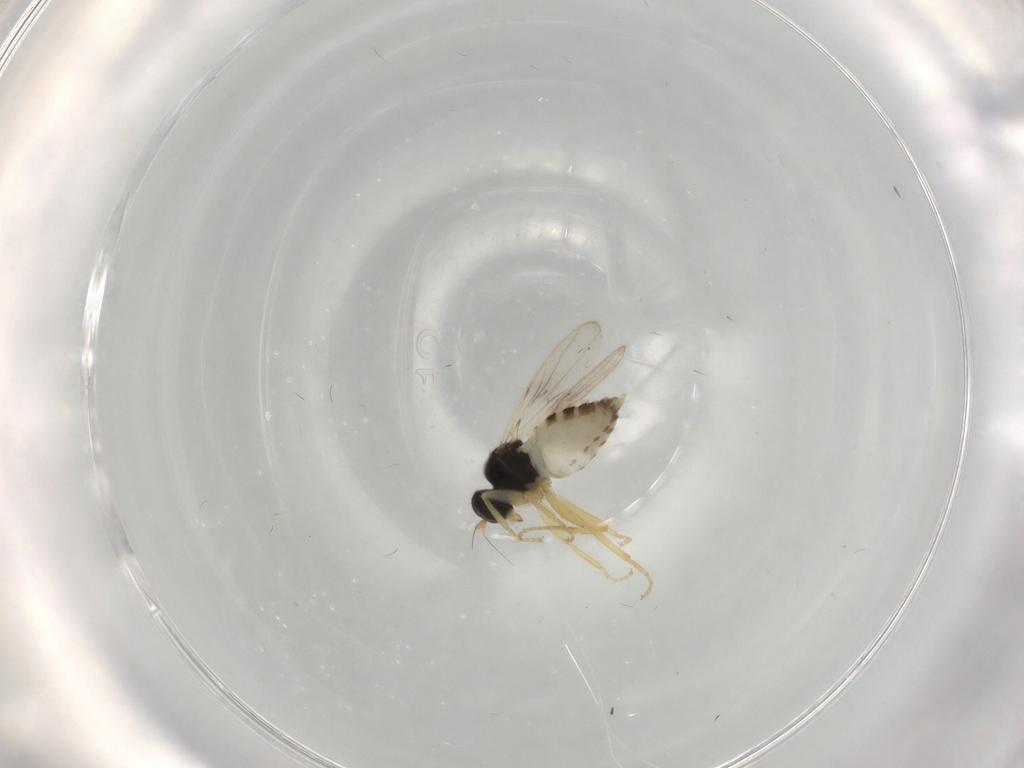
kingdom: Animalia
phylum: Arthropoda
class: Insecta
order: Diptera
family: Hybotidae
